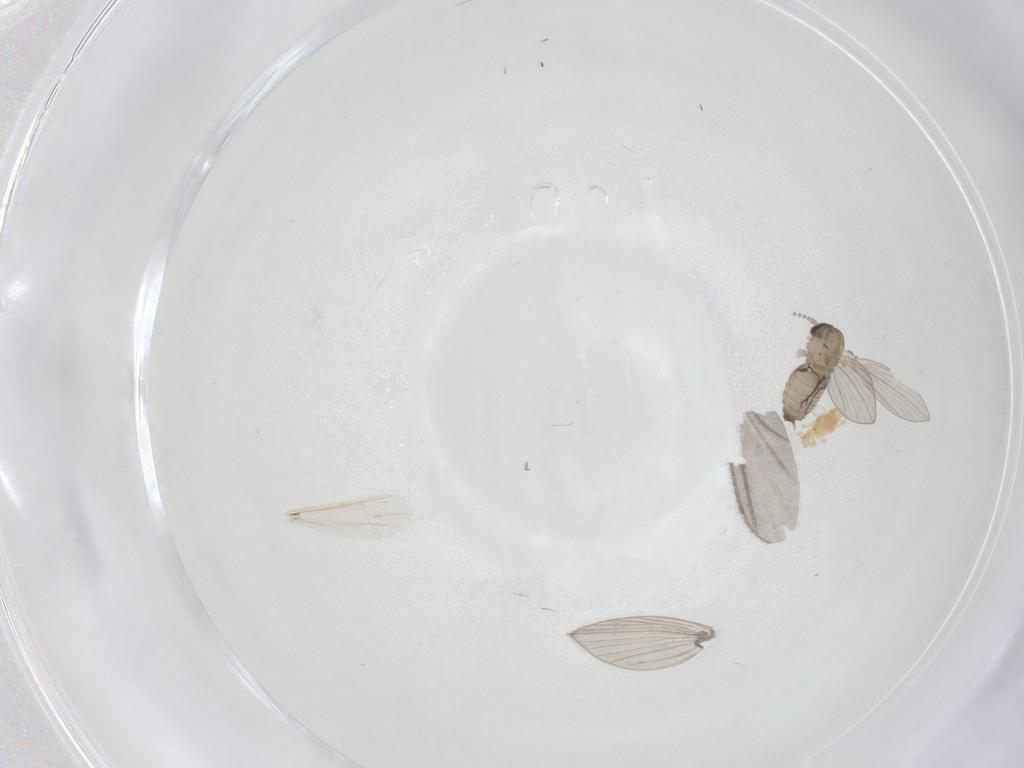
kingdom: Animalia
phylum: Arthropoda
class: Insecta
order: Diptera
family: Psychodidae
